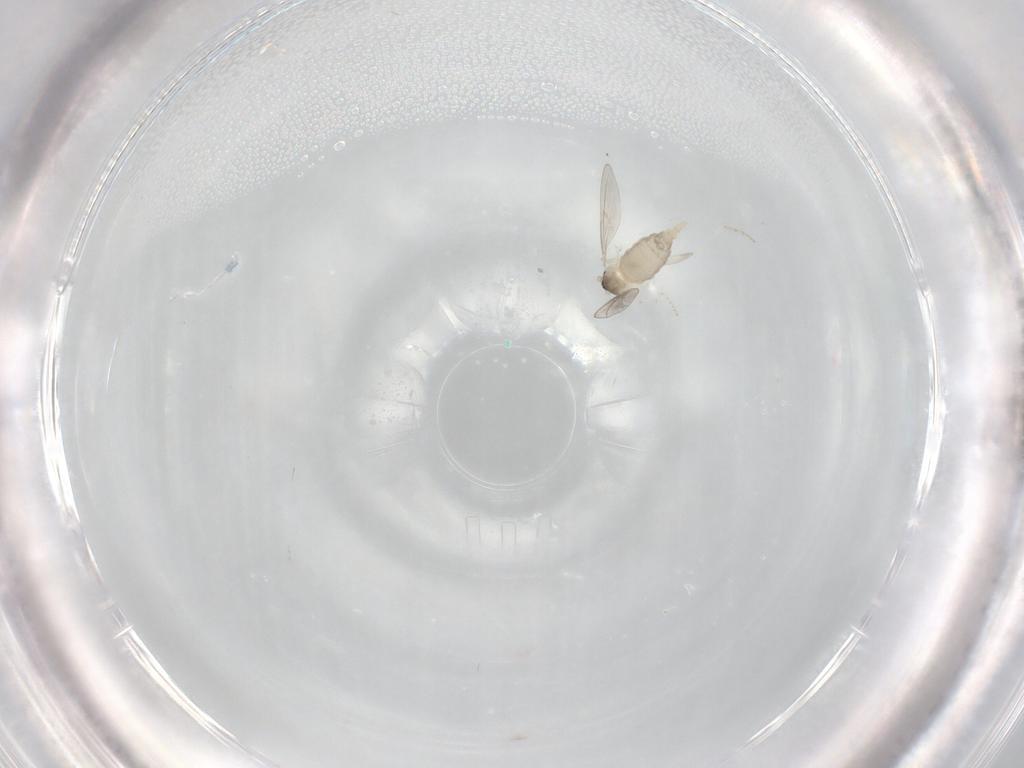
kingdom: Animalia
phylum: Arthropoda
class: Insecta
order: Diptera
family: Cecidomyiidae
